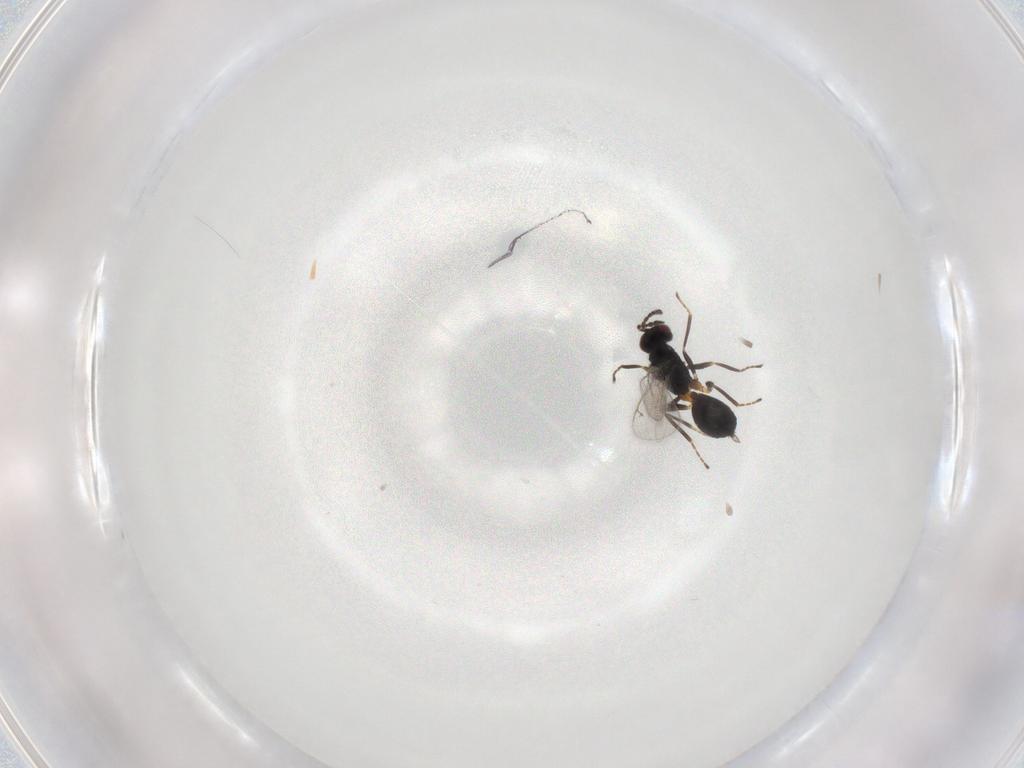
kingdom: Animalia
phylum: Arthropoda
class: Insecta
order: Hymenoptera
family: Eulophidae
